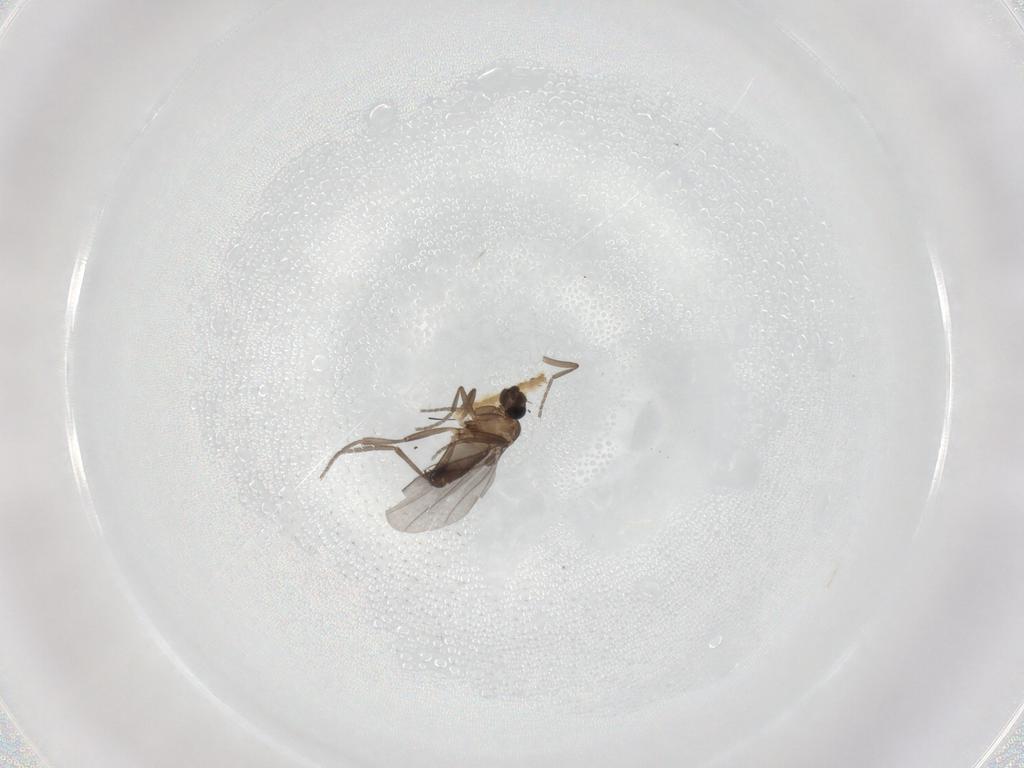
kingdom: Animalia
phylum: Arthropoda
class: Insecta
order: Diptera
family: Phoridae
